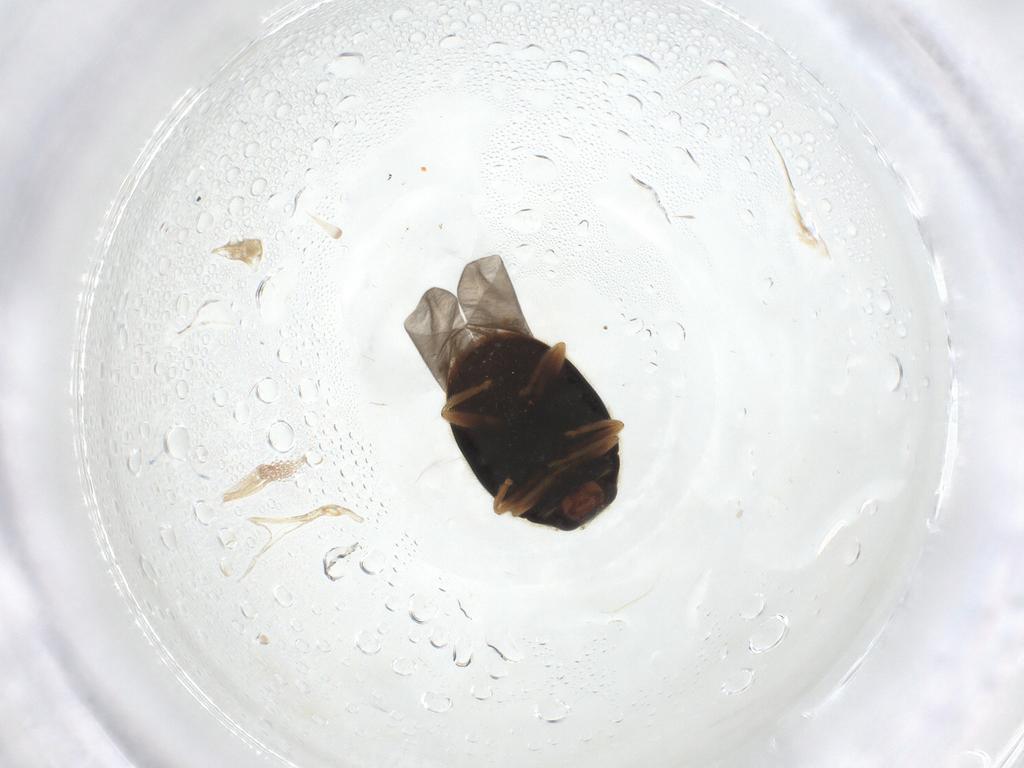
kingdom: Animalia
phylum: Arthropoda
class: Insecta
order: Coleoptera
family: Coccinellidae
